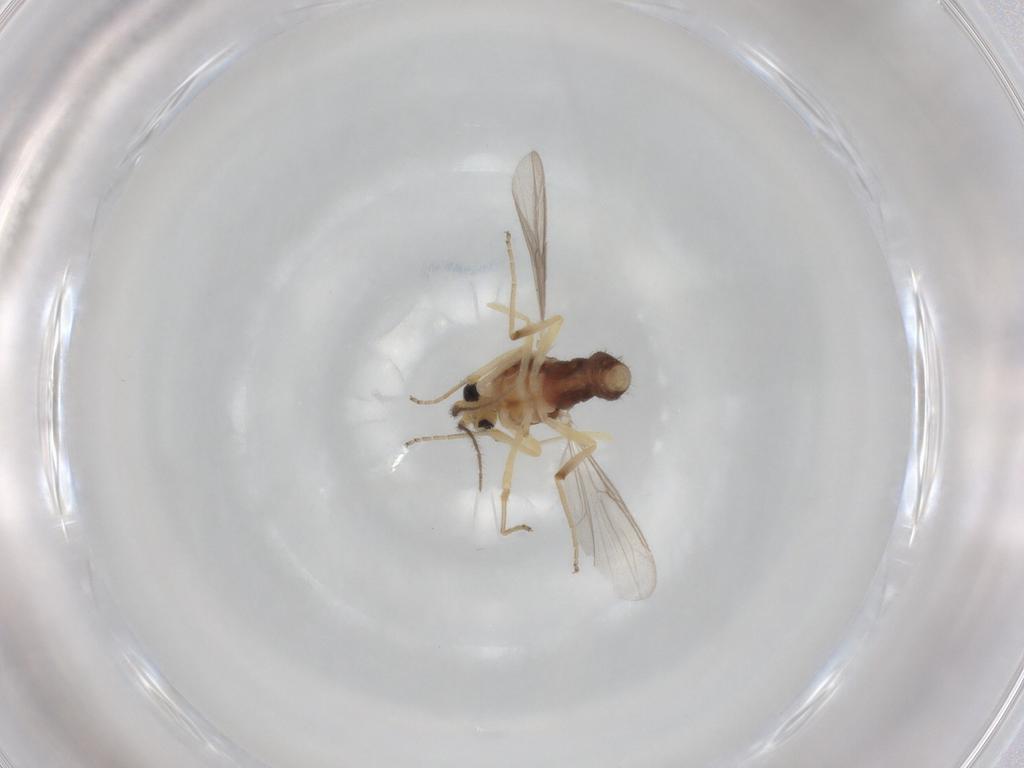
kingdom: Animalia
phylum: Arthropoda
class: Insecta
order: Diptera
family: Ceratopogonidae
